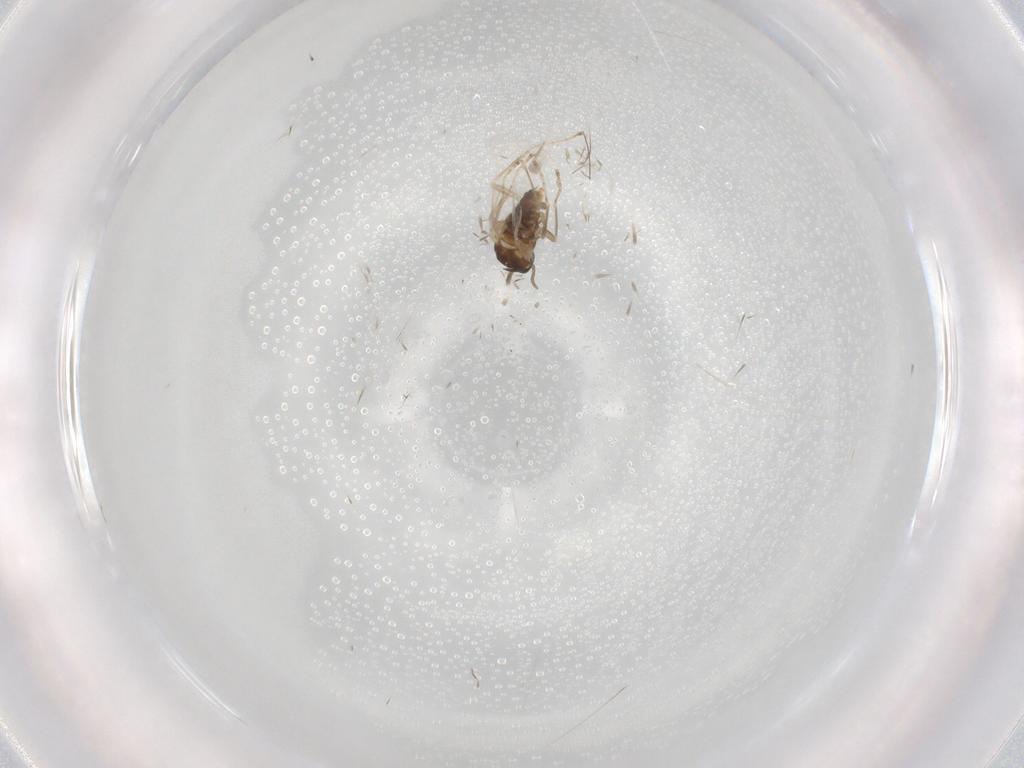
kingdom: Animalia
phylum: Arthropoda
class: Insecta
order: Diptera
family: Cecidomyiidae
